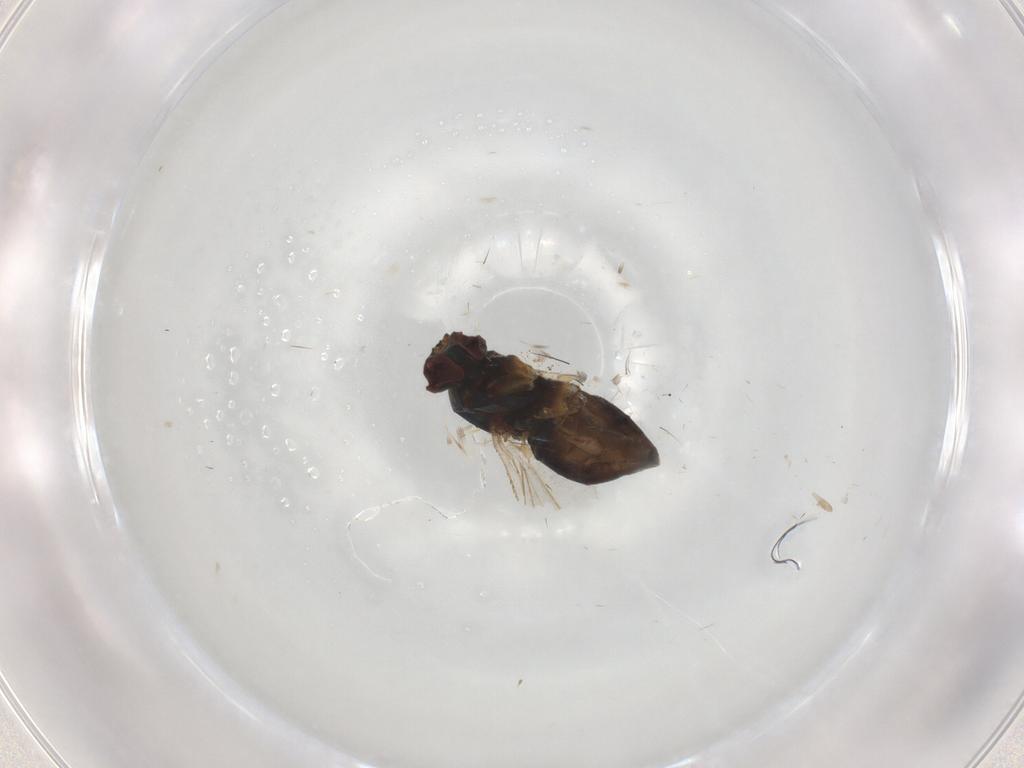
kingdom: Animalia
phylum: Arthropoda
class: Insecta
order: Diptera
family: Dolichopodidae
